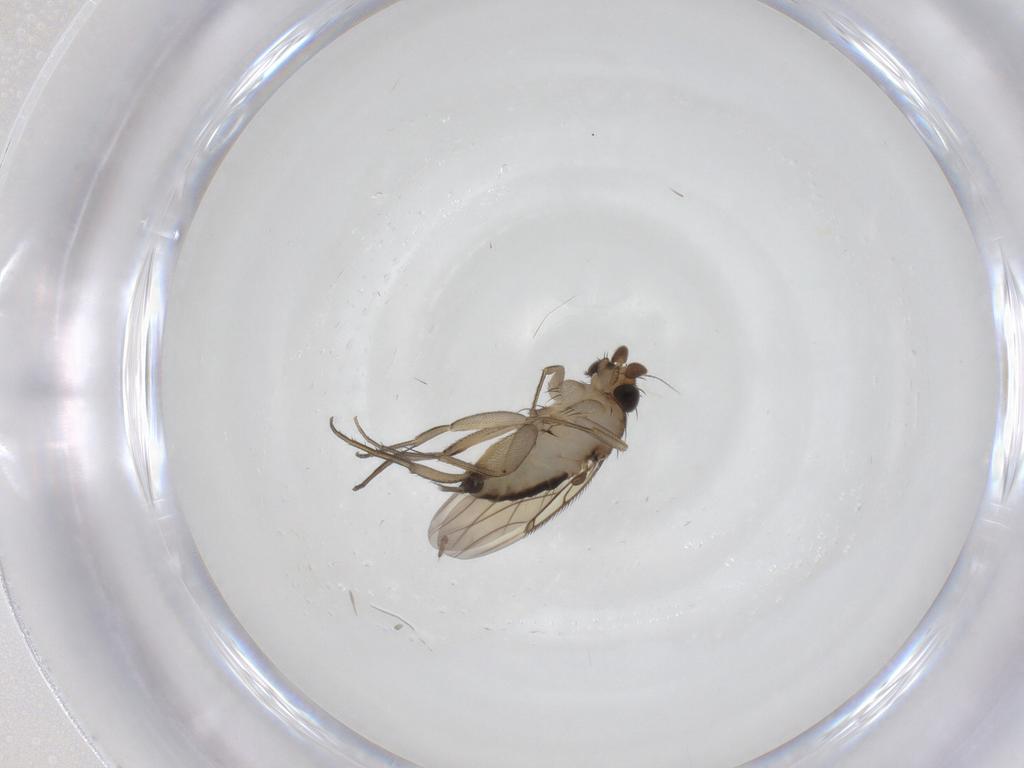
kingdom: Animalia
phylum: Arthropoda
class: Insecta
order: Diptera
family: Phoridae
